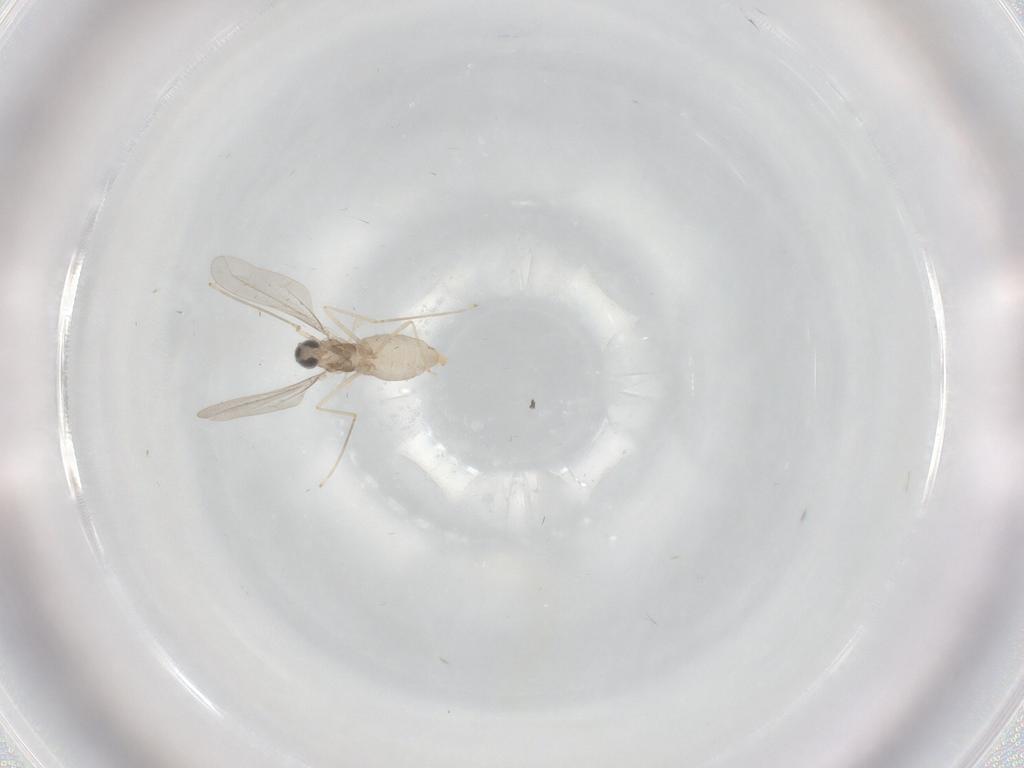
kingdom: Animalia
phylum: Arthropoda
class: Insecta
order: Diptera
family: Cecidomyiidae
